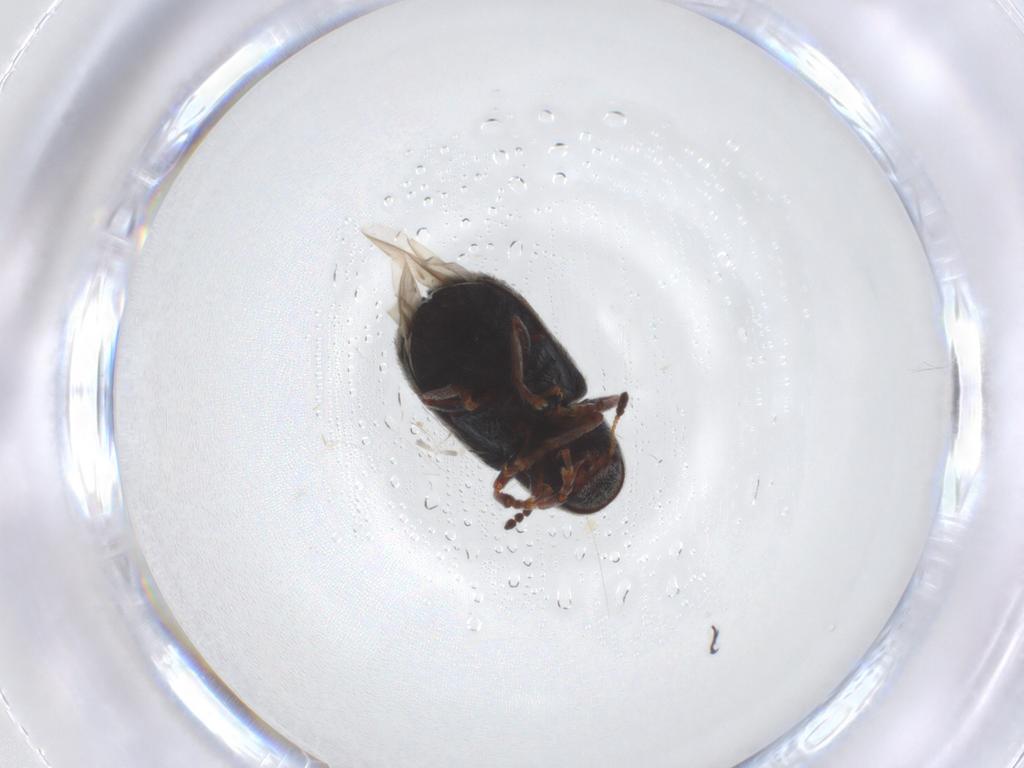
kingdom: Animalia
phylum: Arthropoda
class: Insecta
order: Coleoptera
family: Anthribidae
